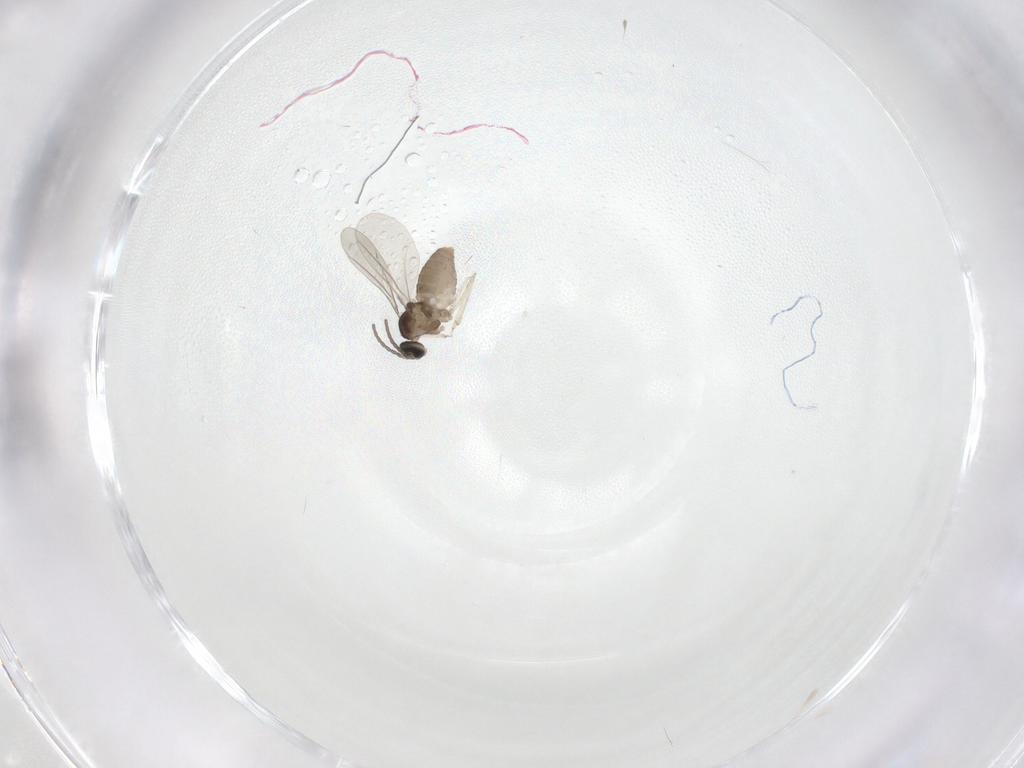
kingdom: Animalia
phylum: Arthropoda
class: Insecta
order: Diptera
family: Cecidomyiidae
